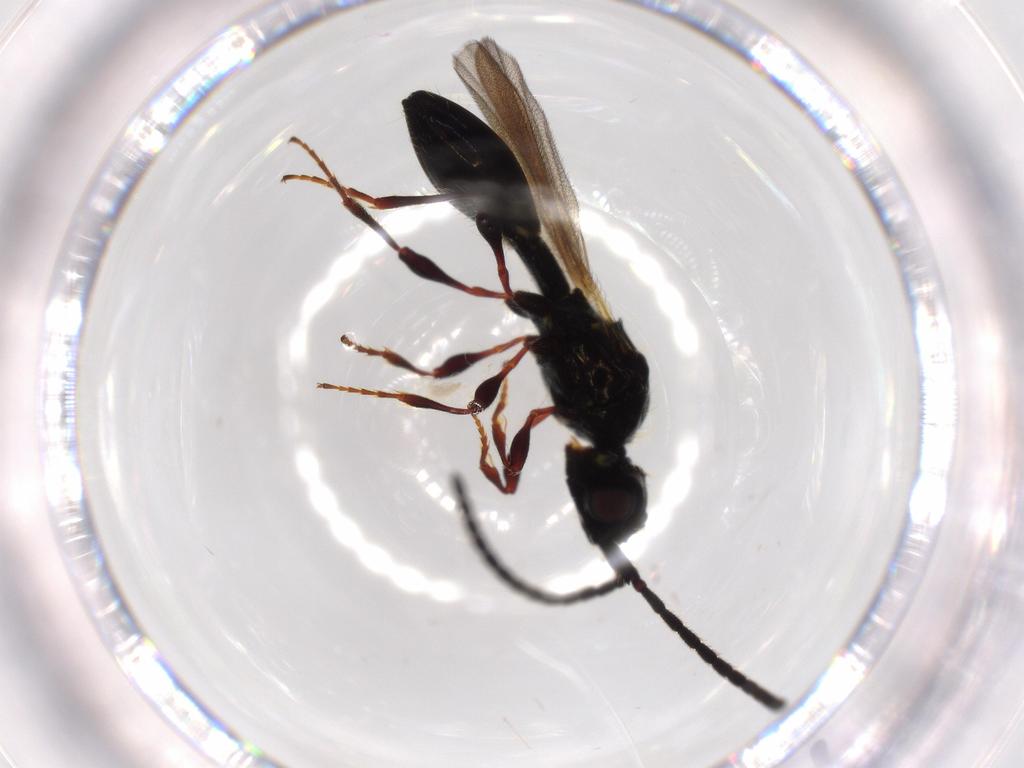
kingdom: Animalia
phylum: Arthropoda
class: Insecta
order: Hymenoptera
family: Diapriidae
